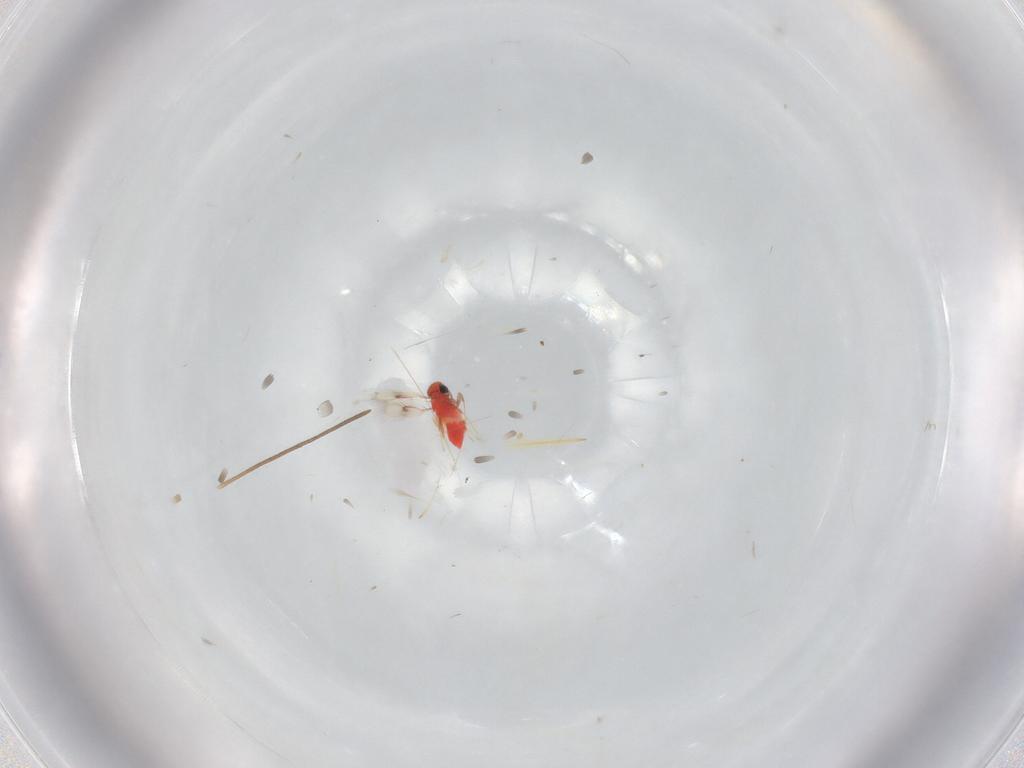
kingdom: Animalia
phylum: Arthropoda
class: Insecta
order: Hymenoptera
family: Trichogrammatidae
